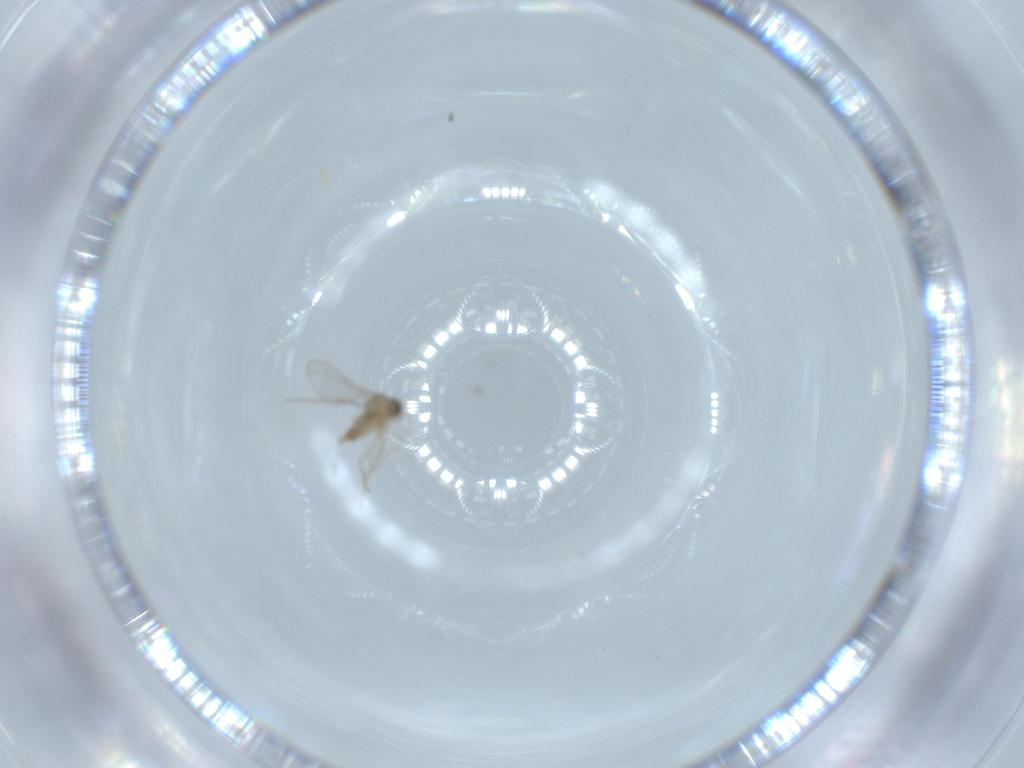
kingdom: Animalia
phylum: Arthropoda
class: Insecta
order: Diptera
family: Cecidomyiidae
